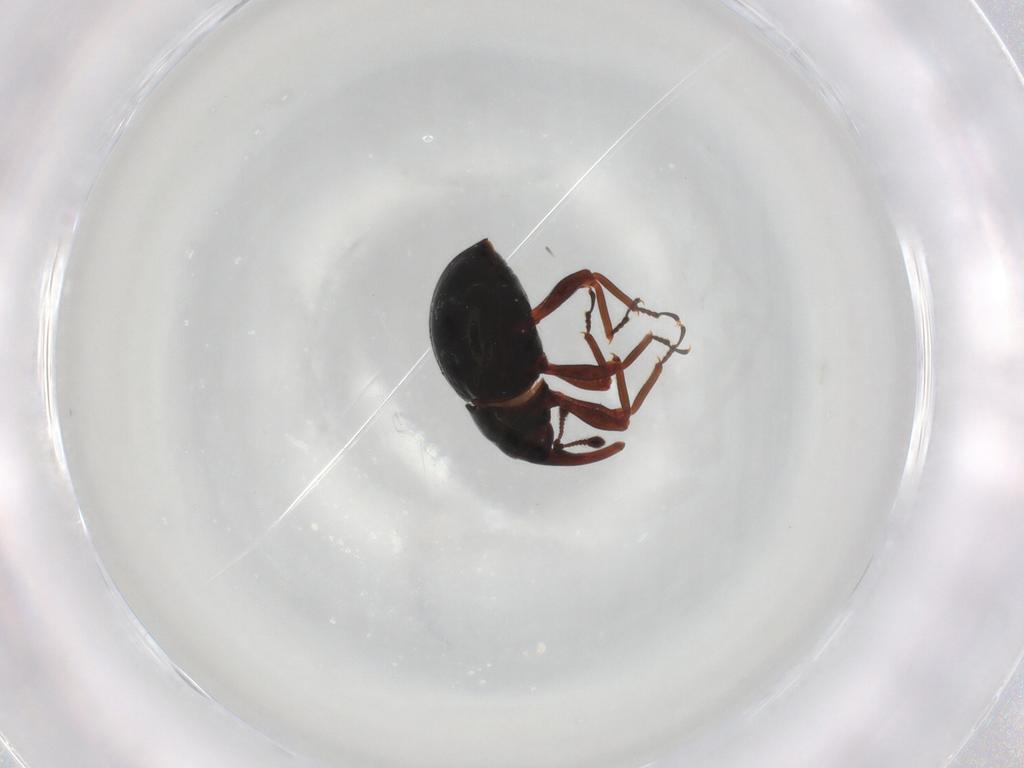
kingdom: Animalia
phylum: Arthropoda
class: Insecta
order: Coleoptera
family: Curculionidae
